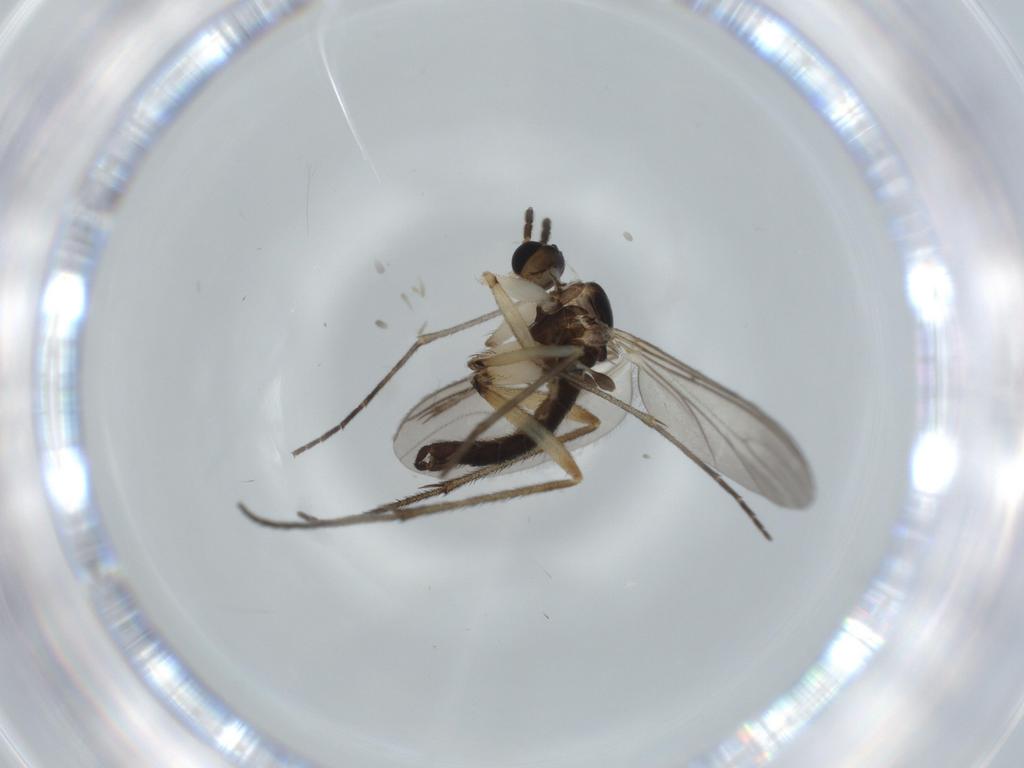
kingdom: Animalia
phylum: Arthropoda
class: Insecta
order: Diptera
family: Sciaridae
